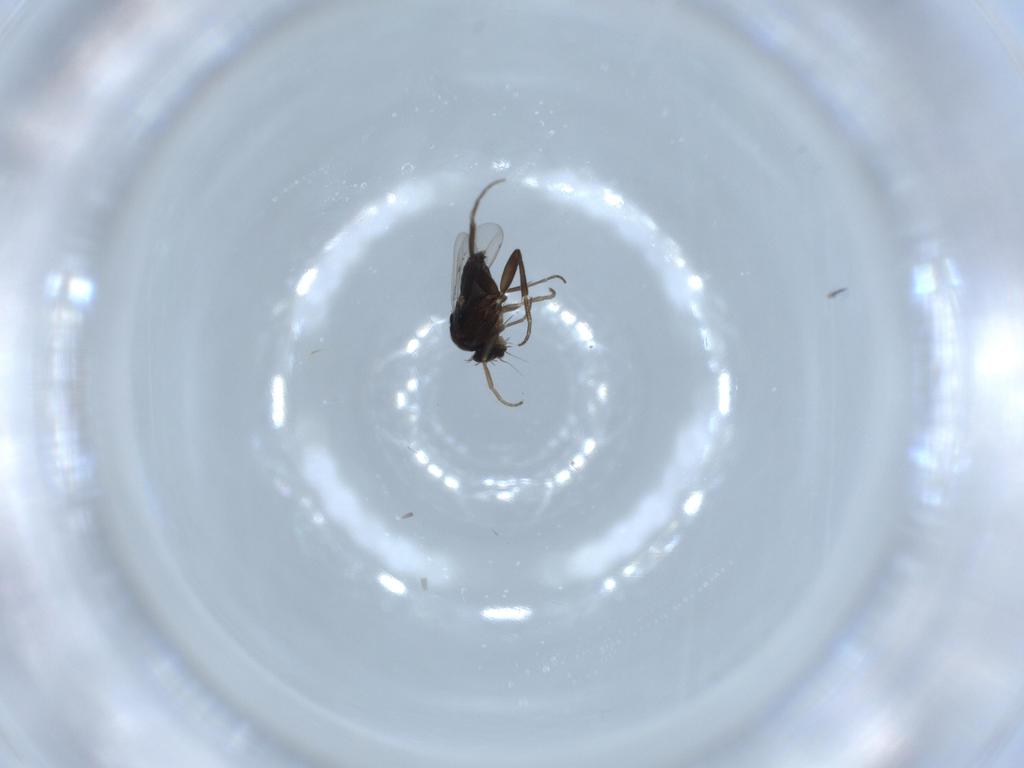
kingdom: Animalia
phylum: Arthropoda
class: Insecta
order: Diptera
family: Phoridae
